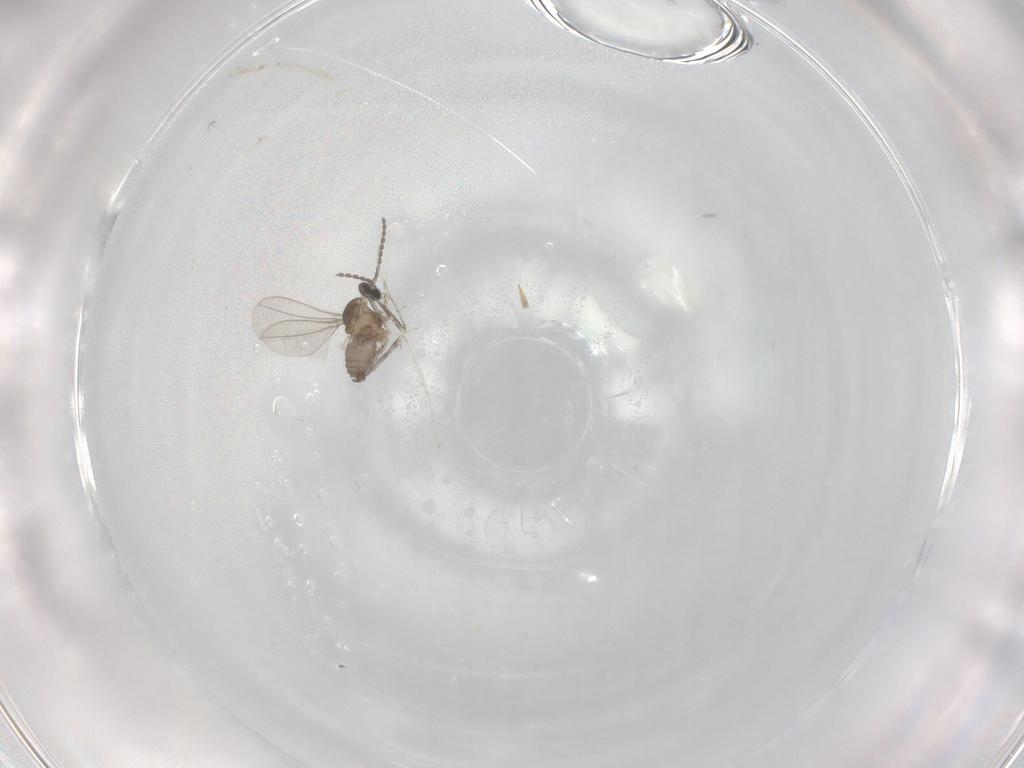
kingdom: Animalia
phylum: Arthropoda
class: Insecta
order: Diptera
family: Cecidomyiidae
